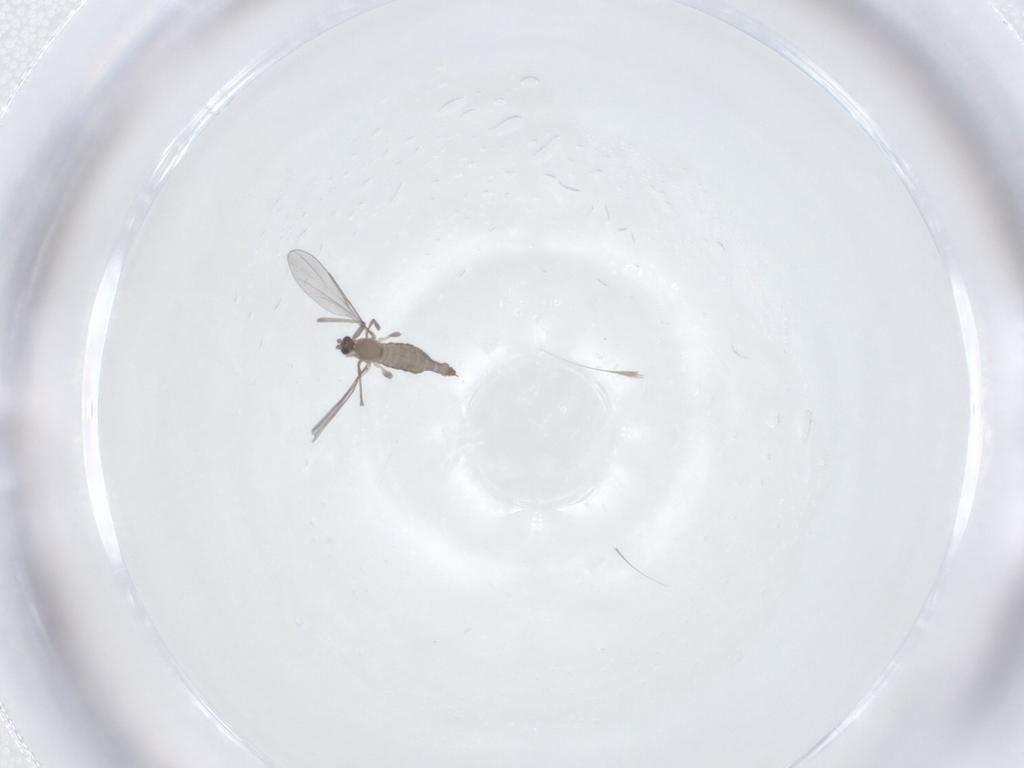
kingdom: Animalia
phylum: Arthropoda
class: Insecta
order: Diptera
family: Cecidomyiidae
